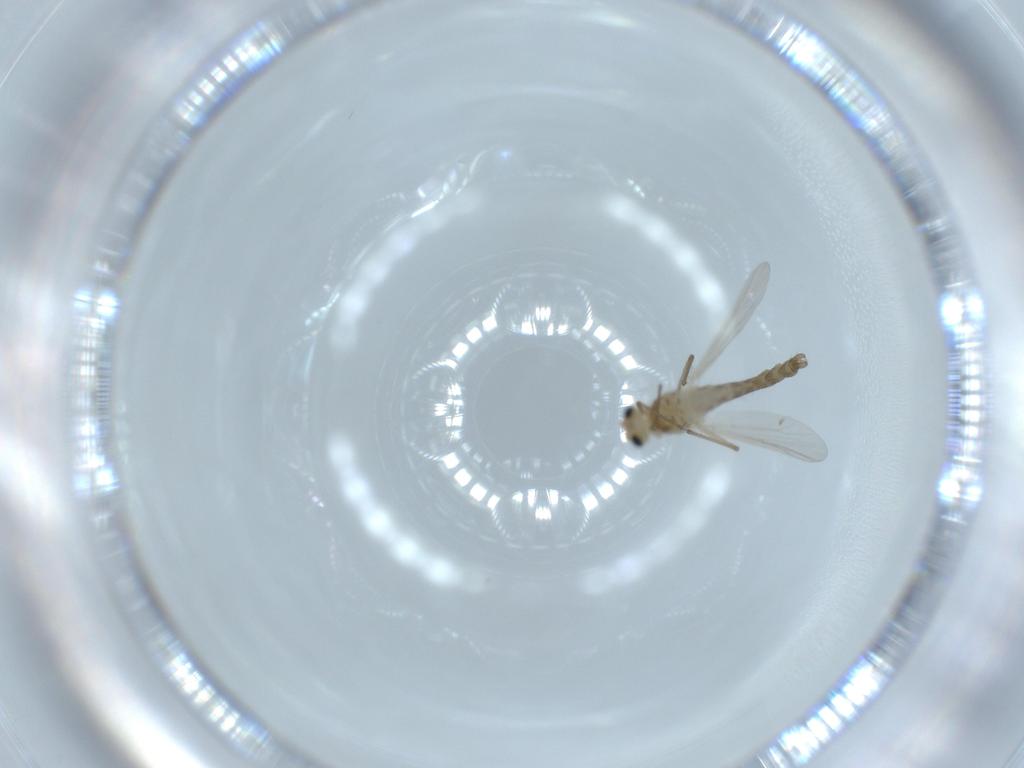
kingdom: Animalia
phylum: Arthropoda
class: Insecta
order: Diptera
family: Chironomidae
